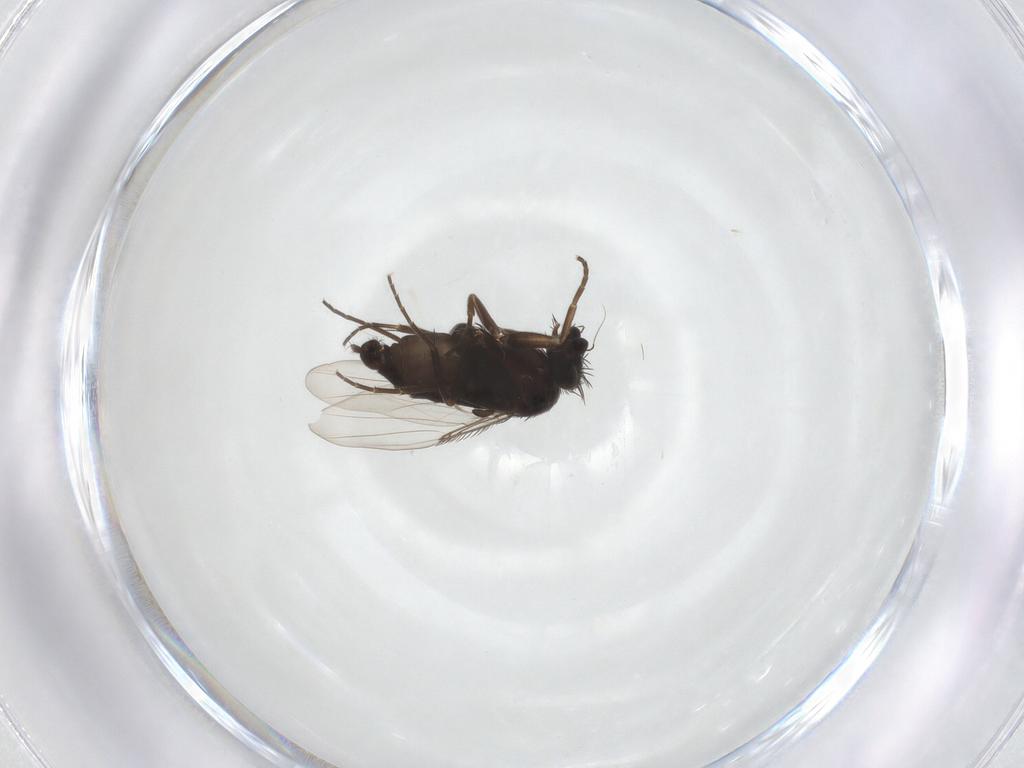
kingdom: Animalia
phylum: Arthropoda
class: Insecta
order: Diptera
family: Phoridae
